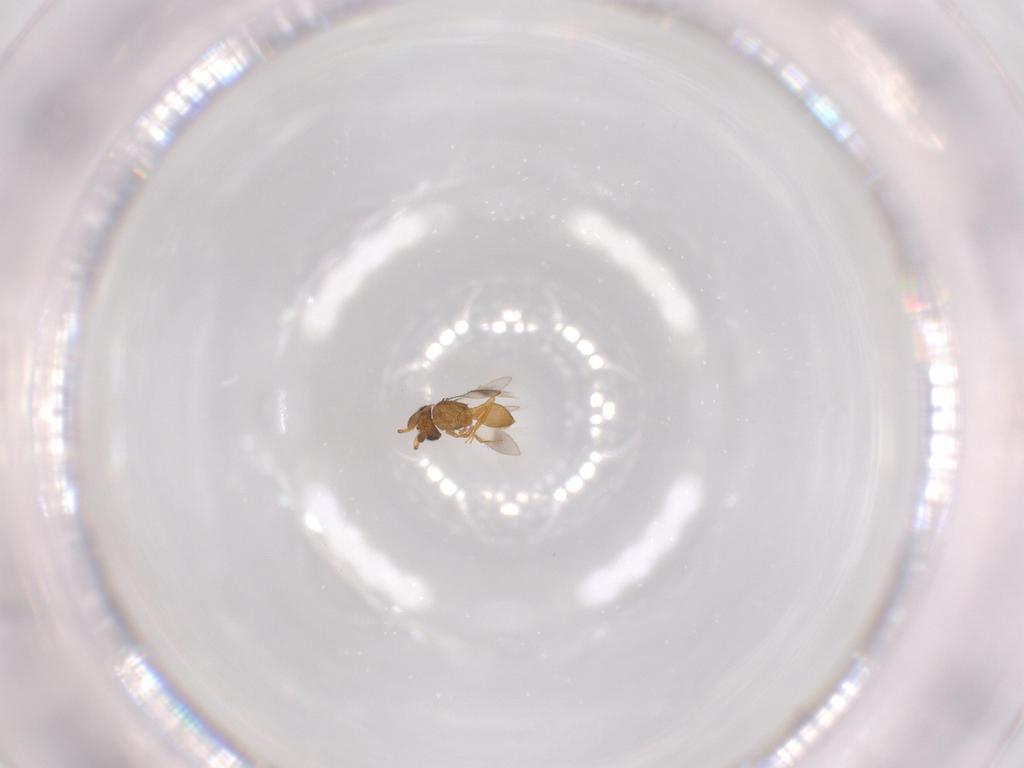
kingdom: Animalia
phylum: Arthropoda
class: Insecta
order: Hymenoptera
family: Scelionidae
